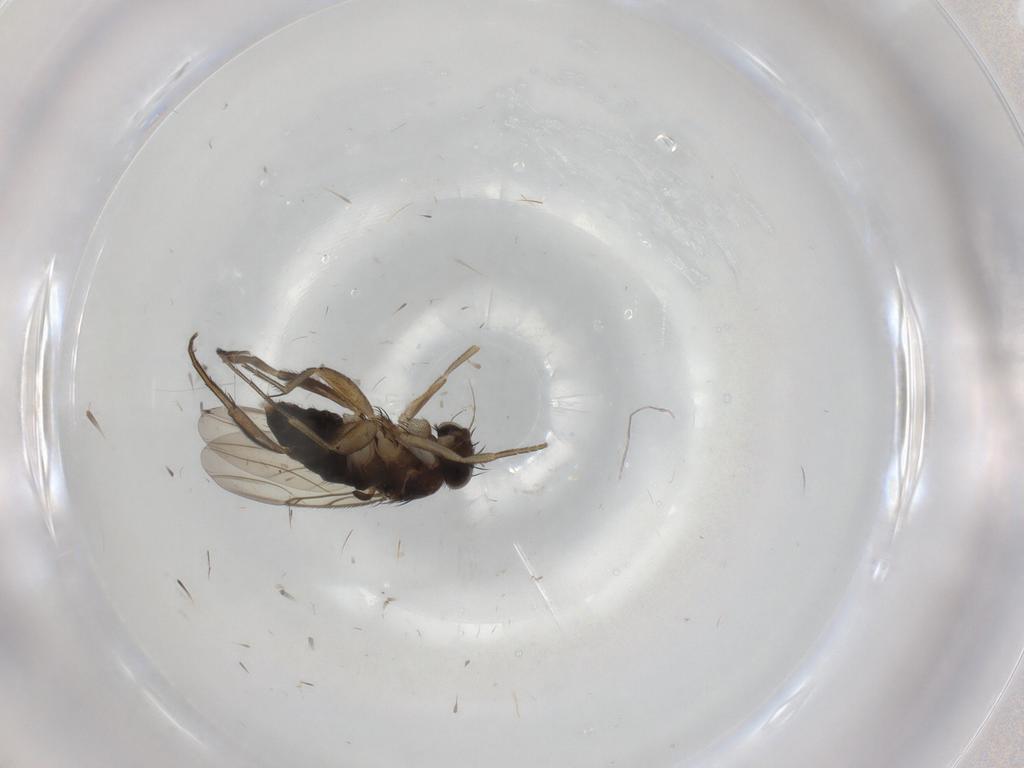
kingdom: Animalia
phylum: Arthropoda
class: Insecta
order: Diptera
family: Phoridae
